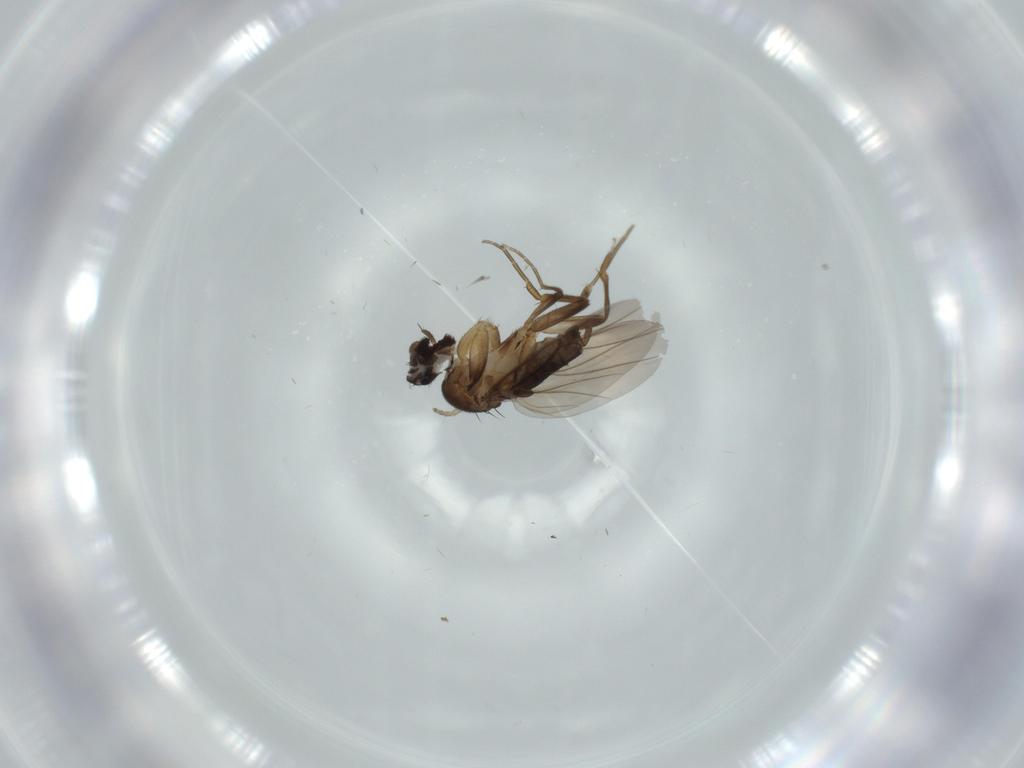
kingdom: Animalia
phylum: Arthropoda
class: Insecta
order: Diptera
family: Phoridae
